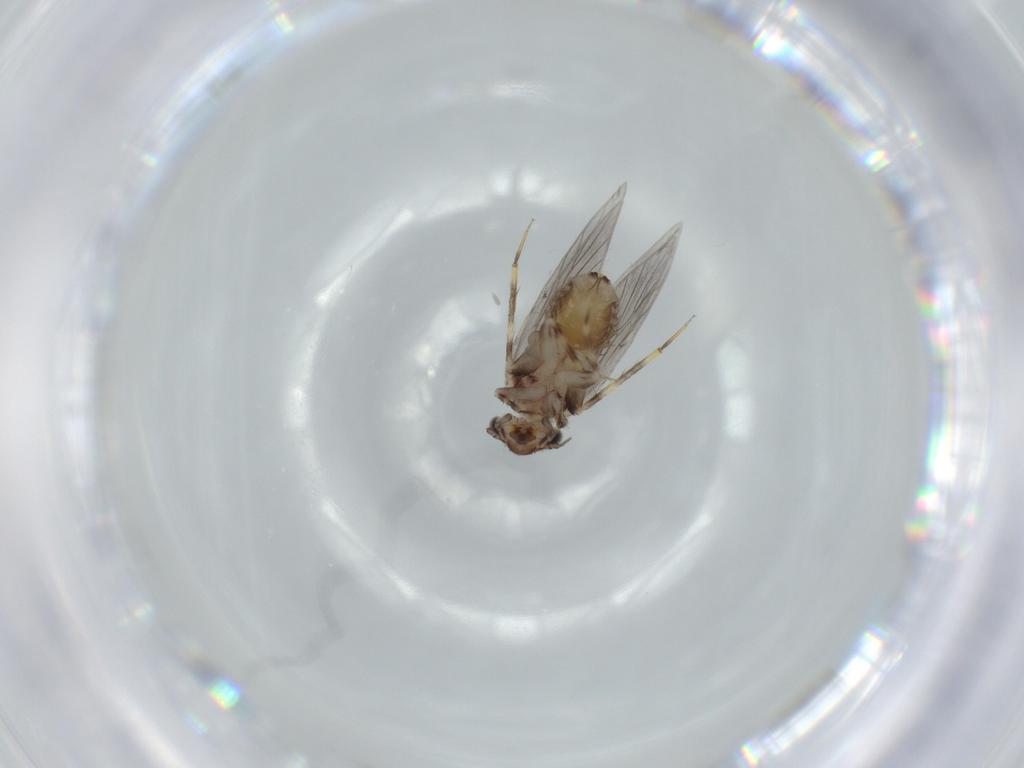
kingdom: Animalia
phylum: Arthropoda
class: Insecta
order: Psocodea
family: Lepidopsocidae
